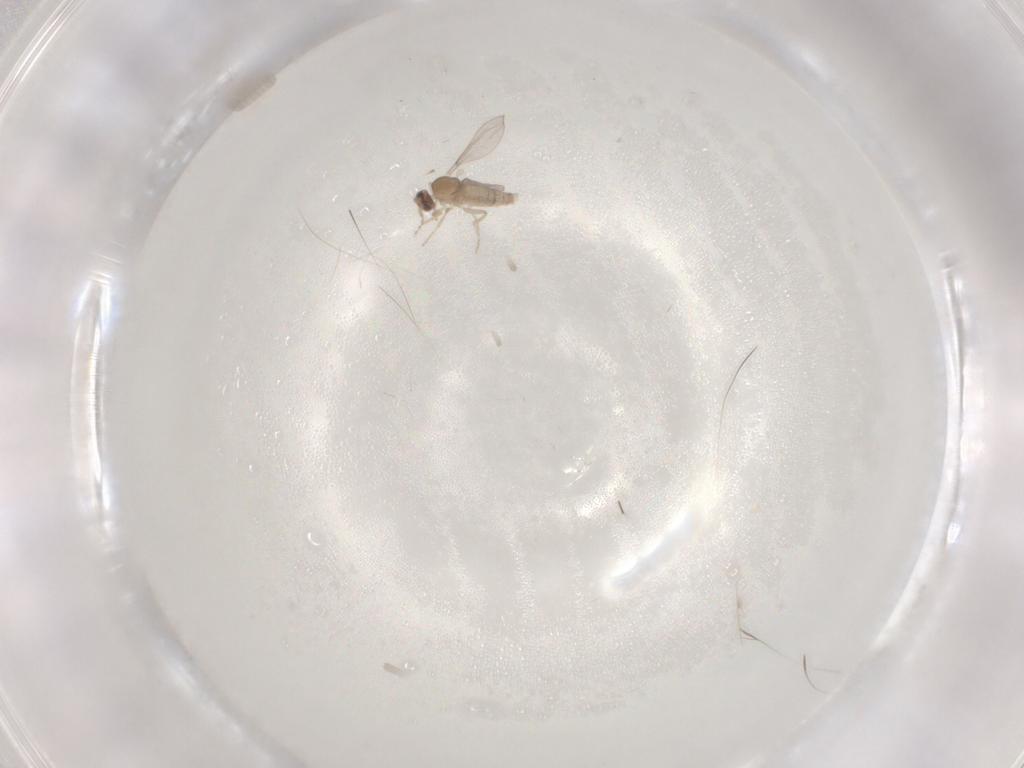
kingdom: Animalia
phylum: Arthropoda
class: Insecta
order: Diptera
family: Cecidomyiidae
